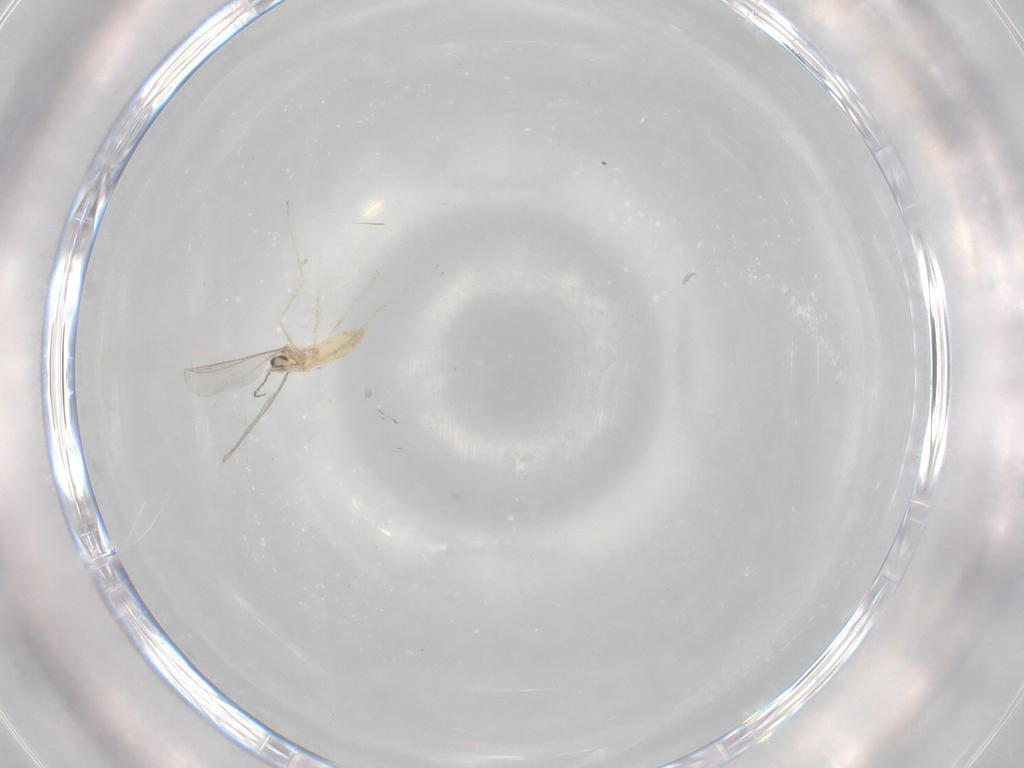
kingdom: Animalia
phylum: Arthropoda
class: Insecta
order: Diptera
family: Cecidomyiidae
